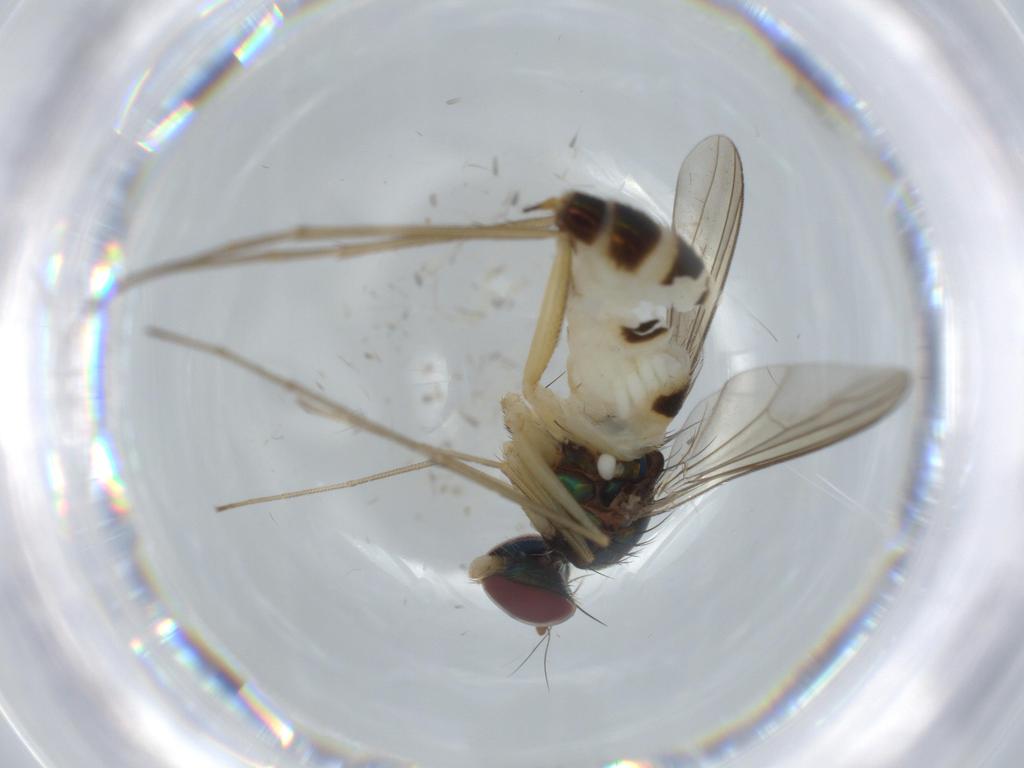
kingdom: Animalia
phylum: Arthropoda
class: Insecta
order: Diptera
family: Dolichopodidae
